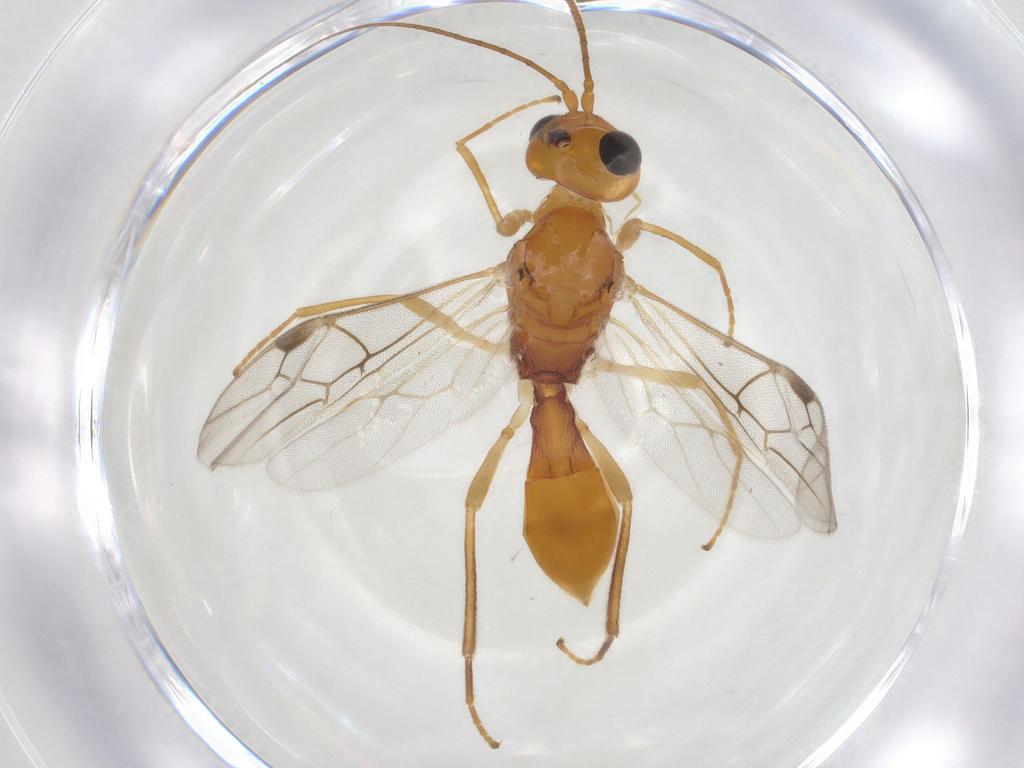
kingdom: Animalia
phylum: Arthropoda
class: Insecta
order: Hymenoptera
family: Braconidae
